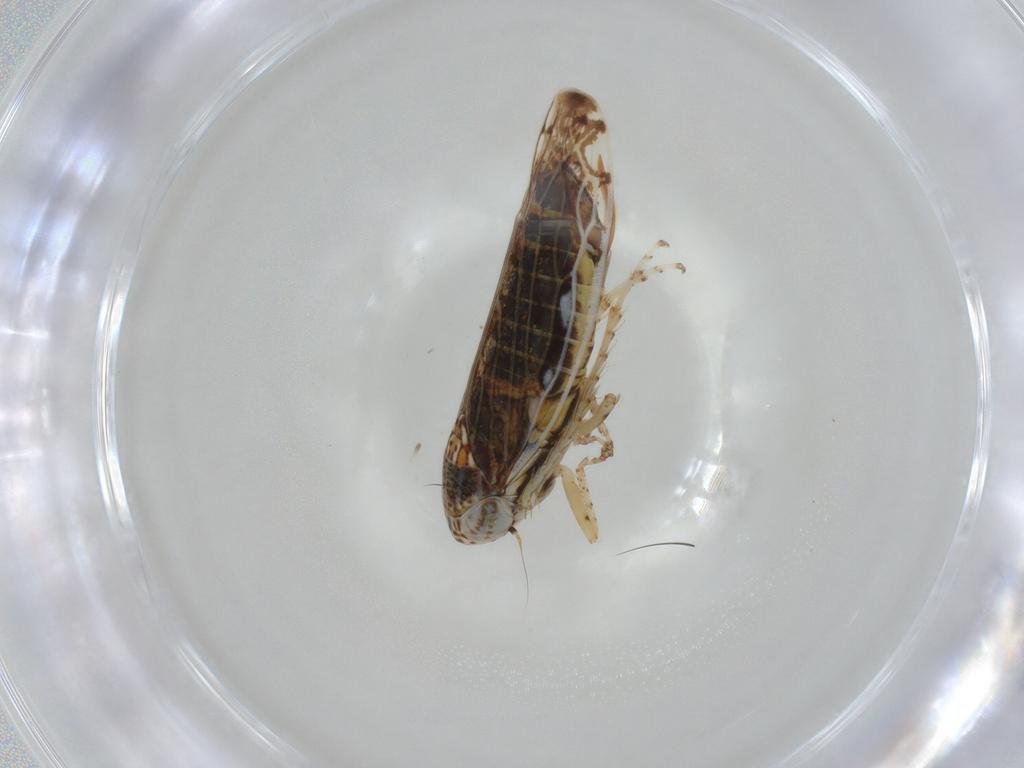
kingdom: Animalia
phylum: Arthropoda
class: Insecta
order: Hemiptera
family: Cicadellidae
